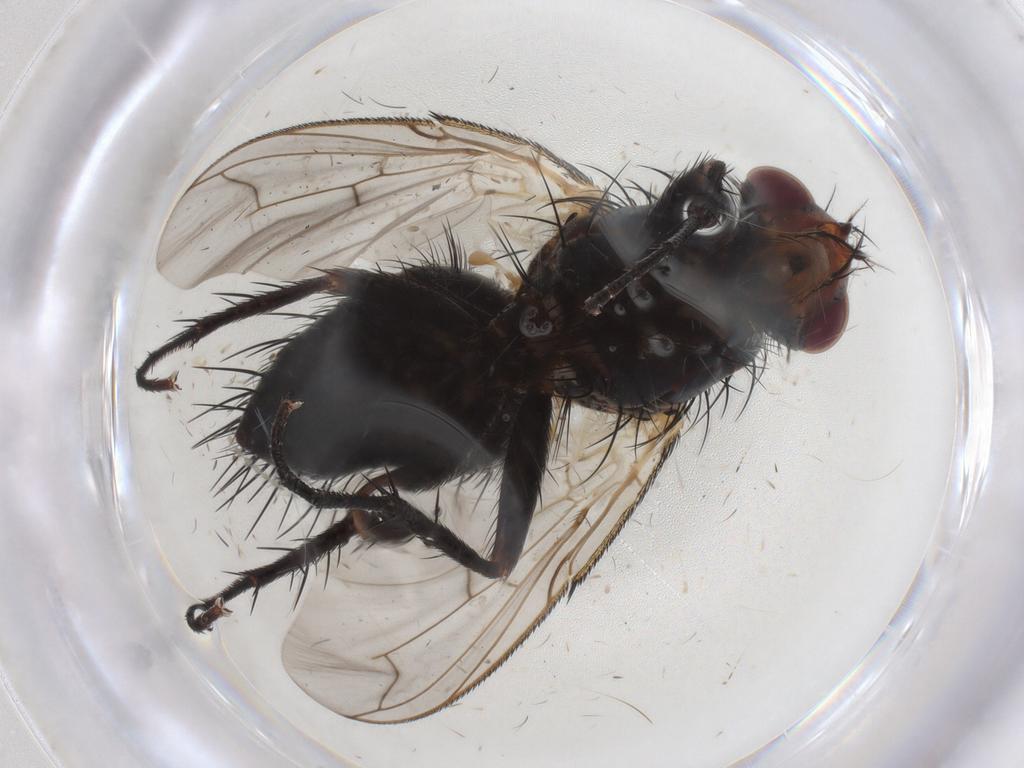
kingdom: Animalia
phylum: Arthropoda
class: Insecta
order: Diptera
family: Tachinidae
